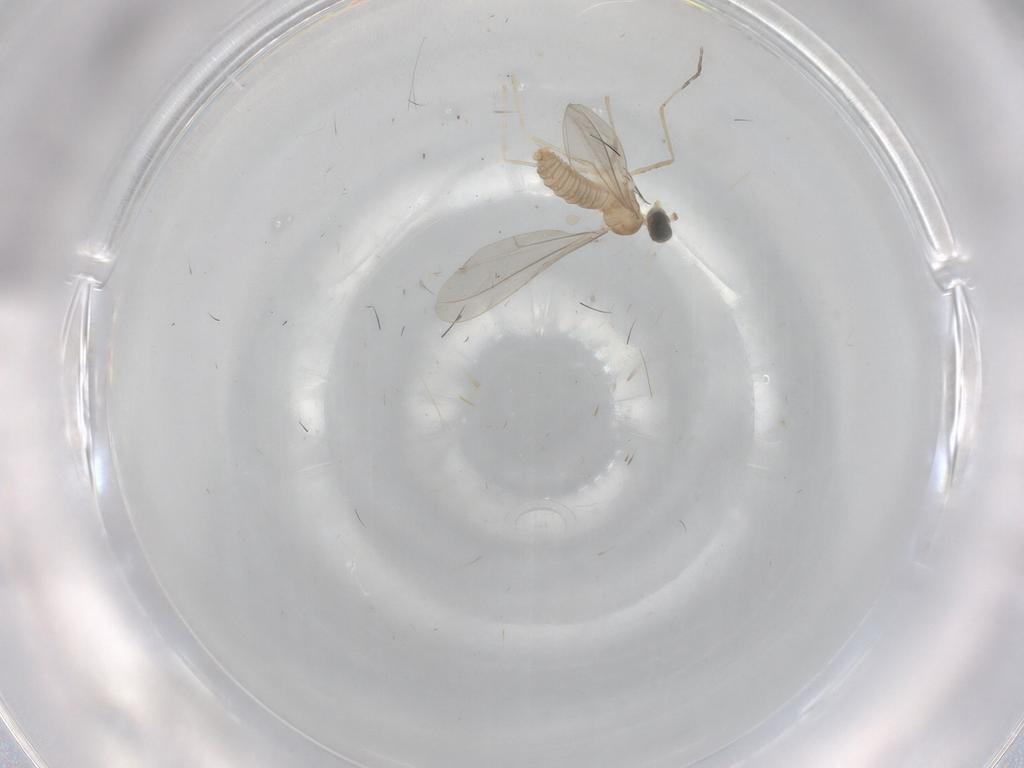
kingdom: Animalia
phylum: Arthropoda
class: Insecta
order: Diptera
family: Cecidomyiidae
